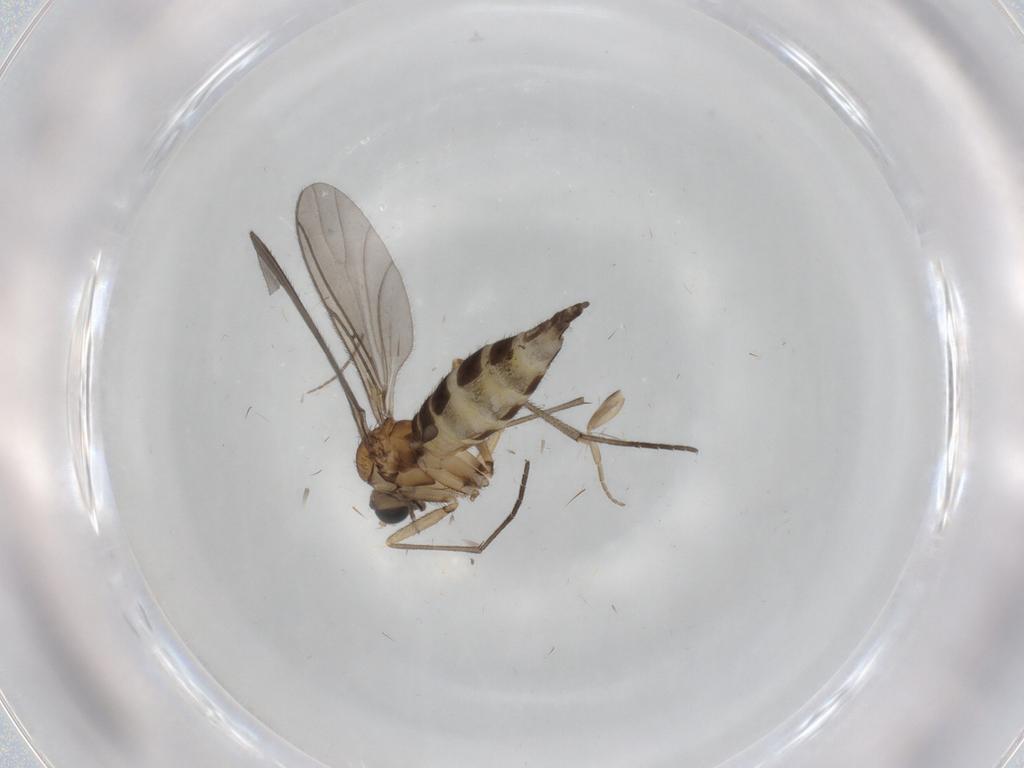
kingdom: Animalia
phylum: Arthropoda
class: Insecta
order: Diptera
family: Sciaridae
